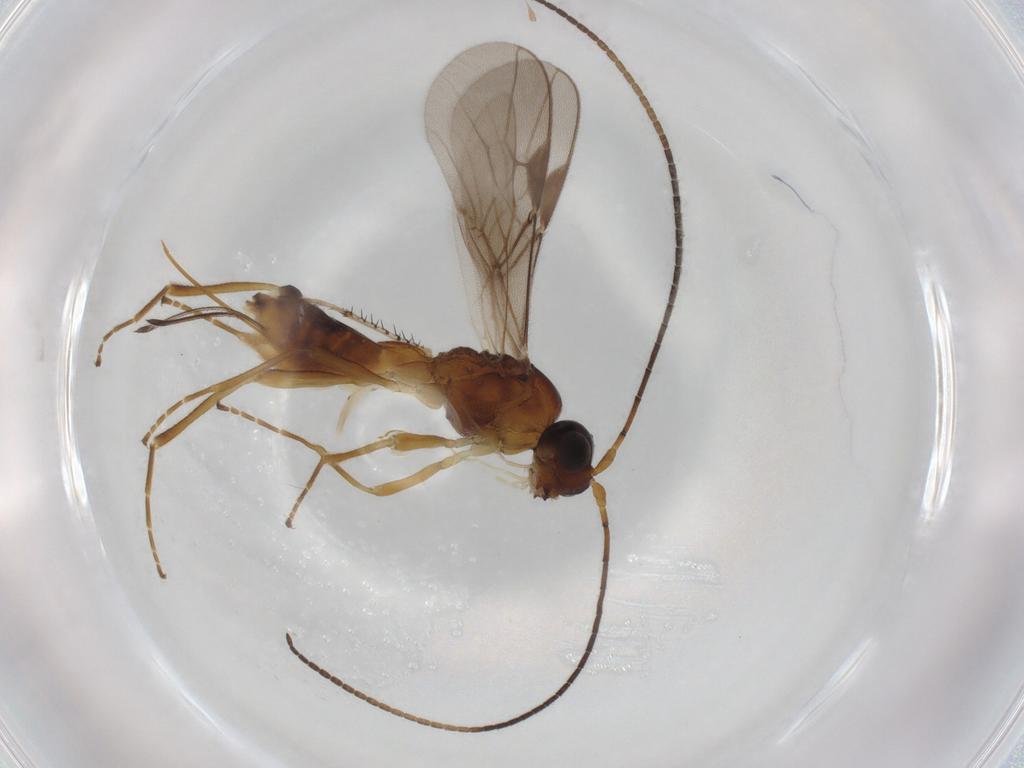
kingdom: Animalia
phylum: Arthropoda
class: Insecta
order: Hymenoptera
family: Braconidae
